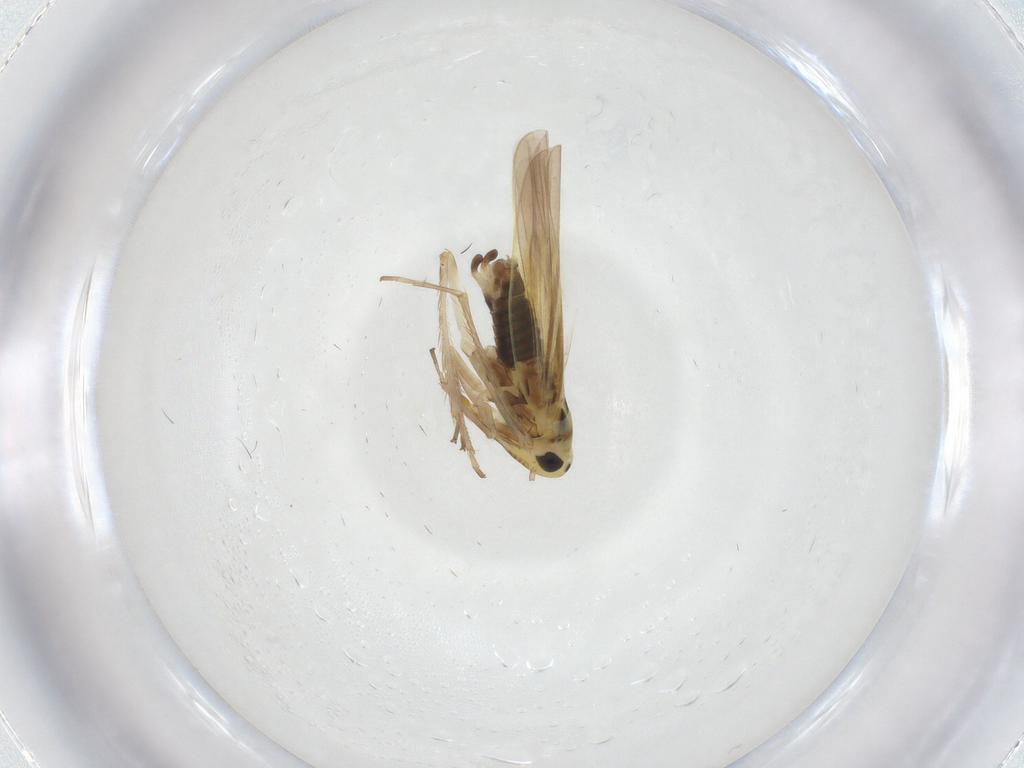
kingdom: Animalia
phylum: Arthropoda
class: Insecta
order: Hemiptera
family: Cicadellidae
